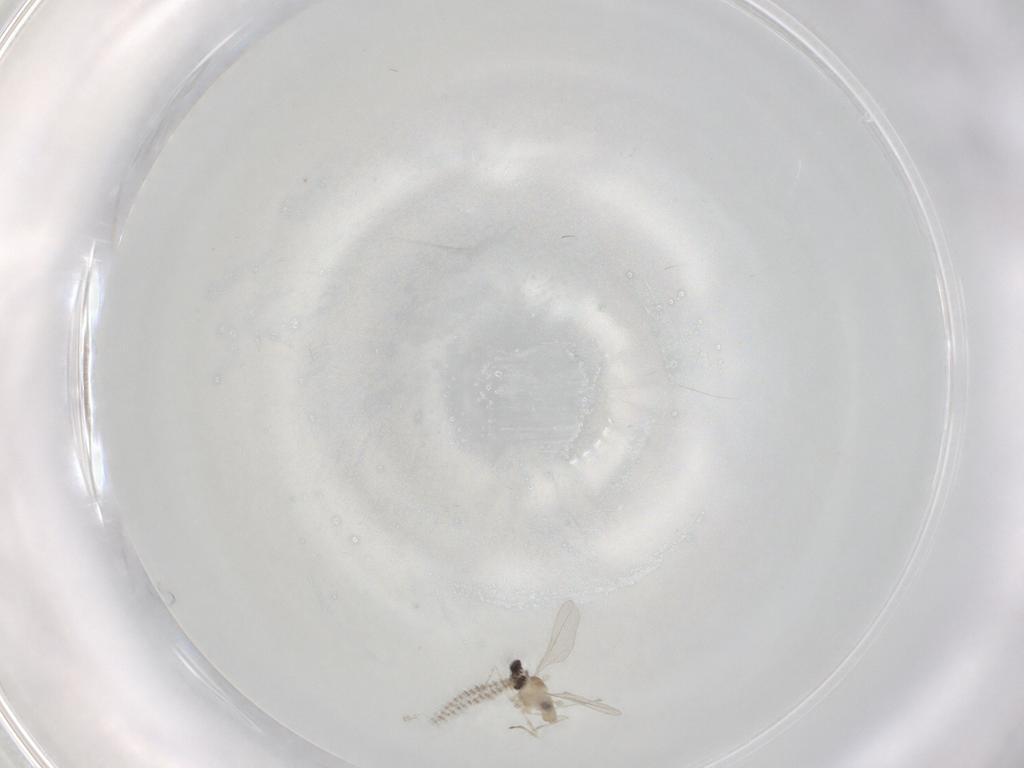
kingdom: Animalia
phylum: Arthropoda
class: Insecta
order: Diptera
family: Cecidomyiidae
